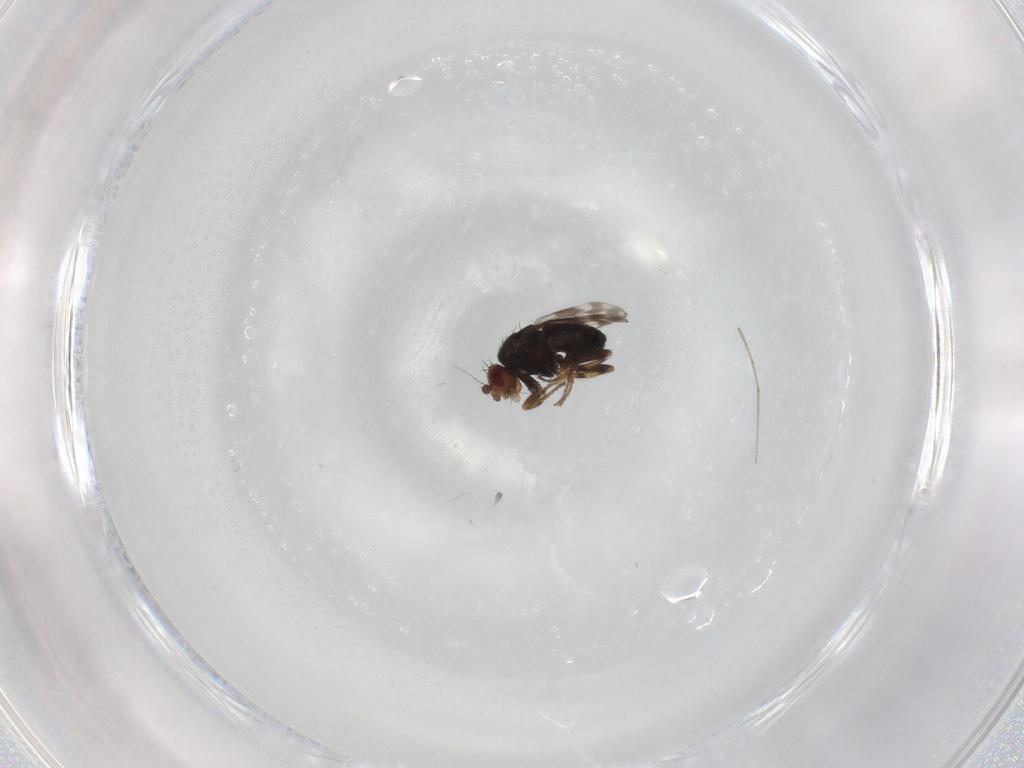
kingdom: Animalia
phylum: Arthropoda
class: Insecta
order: Diptera
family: Sphaeroceridae
